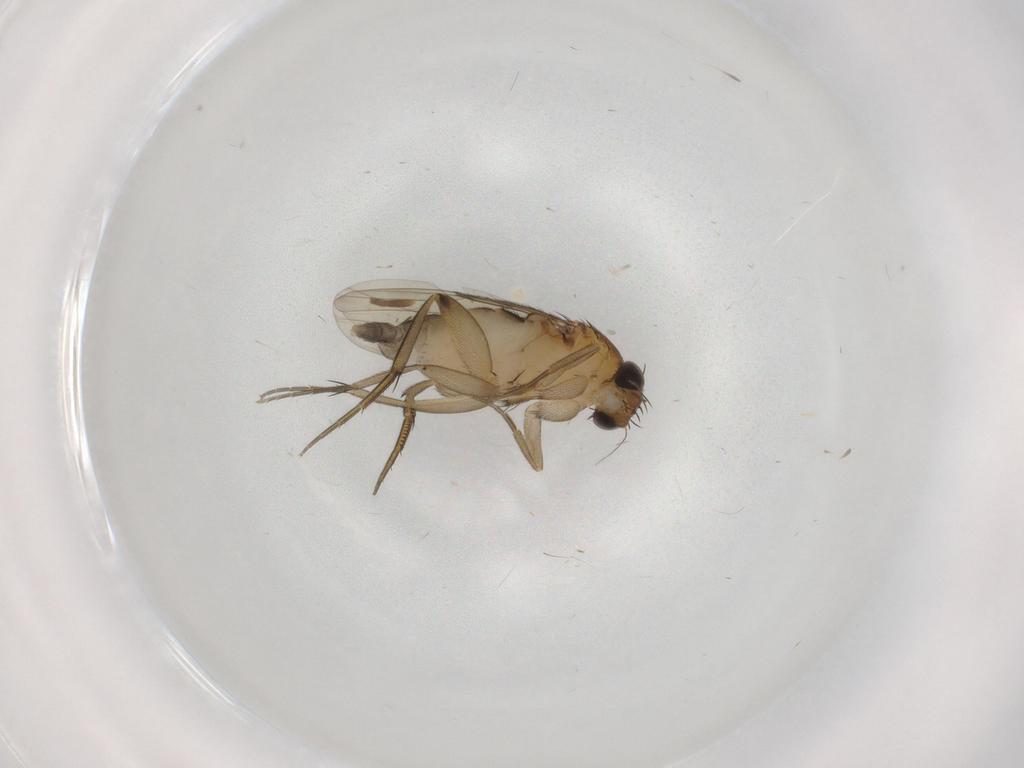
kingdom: Animalia
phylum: Arthropoda
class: Insecta
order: Diptera
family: Phoridae
